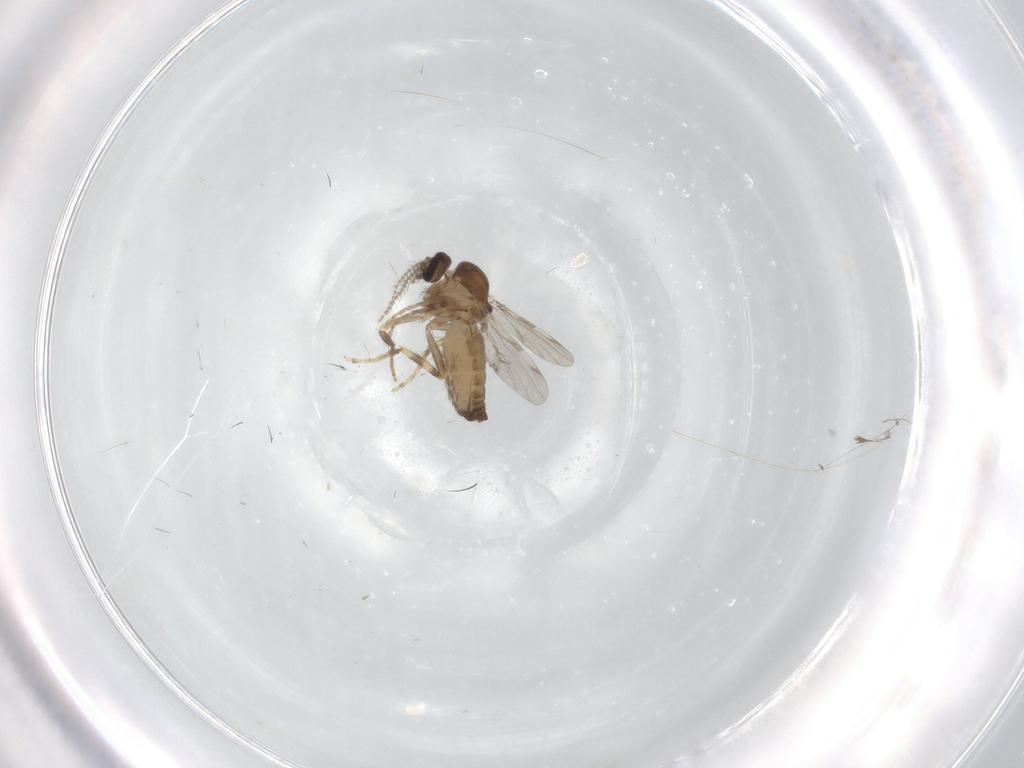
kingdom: Animalia
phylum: Arthropoda
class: Insecta
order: Diptera
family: Ceratopogonidae
